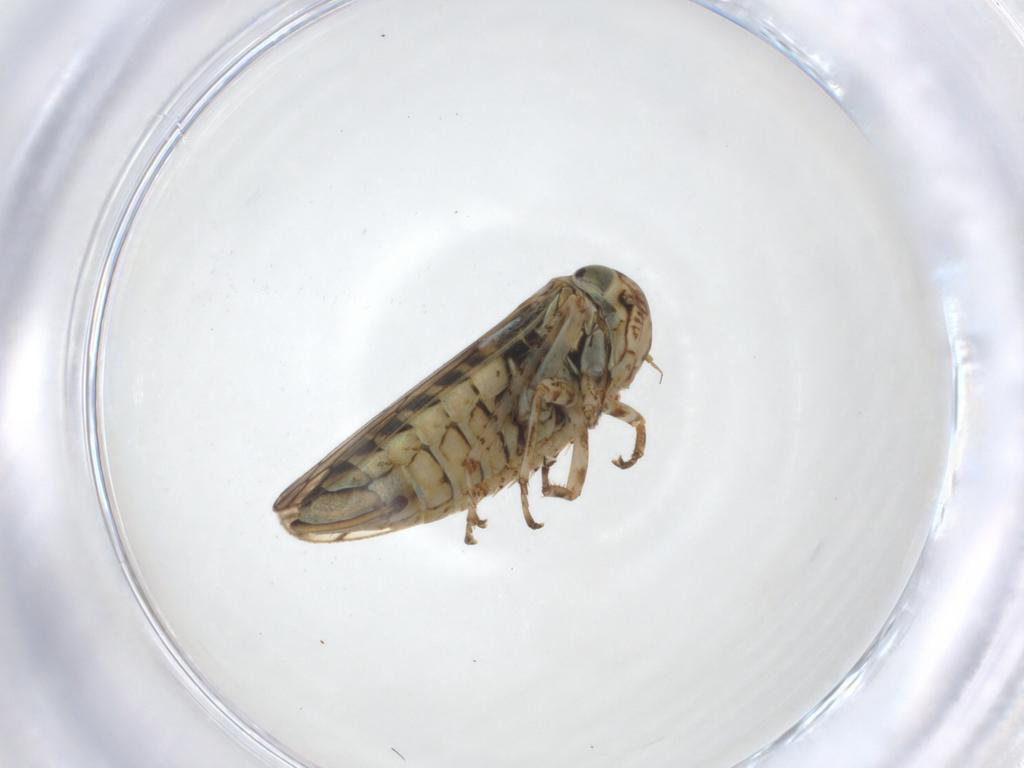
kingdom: Animalia
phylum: Arthropoda
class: Insecta
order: Hemiptera
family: Cicadellidae
